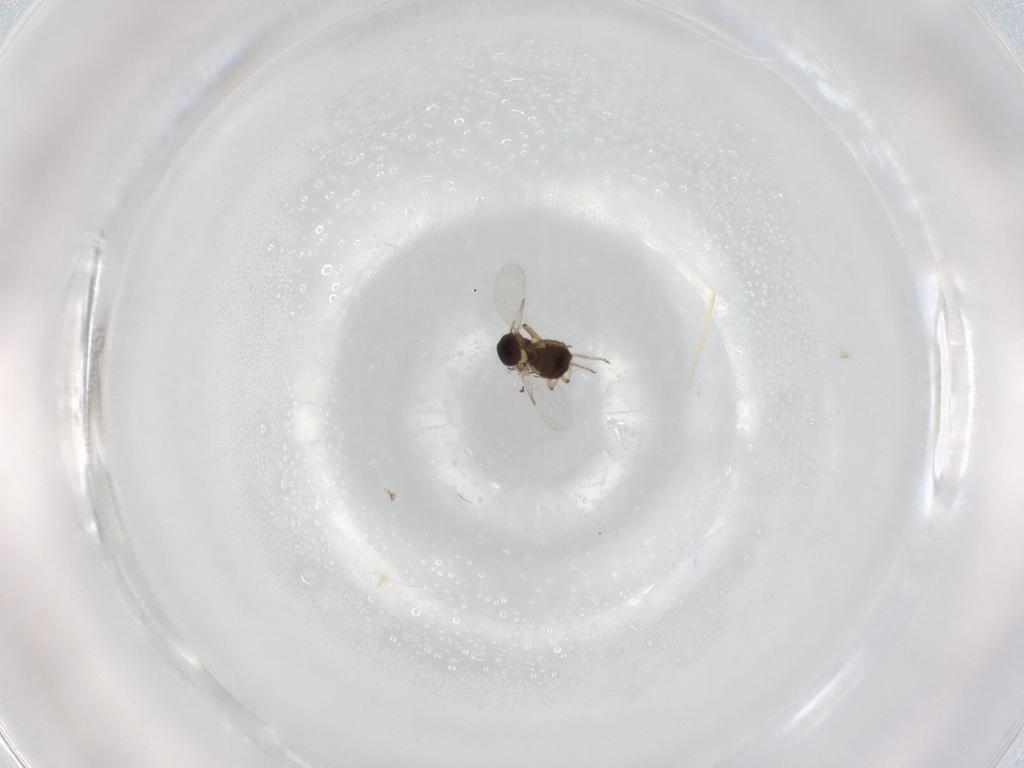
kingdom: Animalia
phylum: Arthropoda
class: Insecta
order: Diptera
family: Ceratopogonidae
